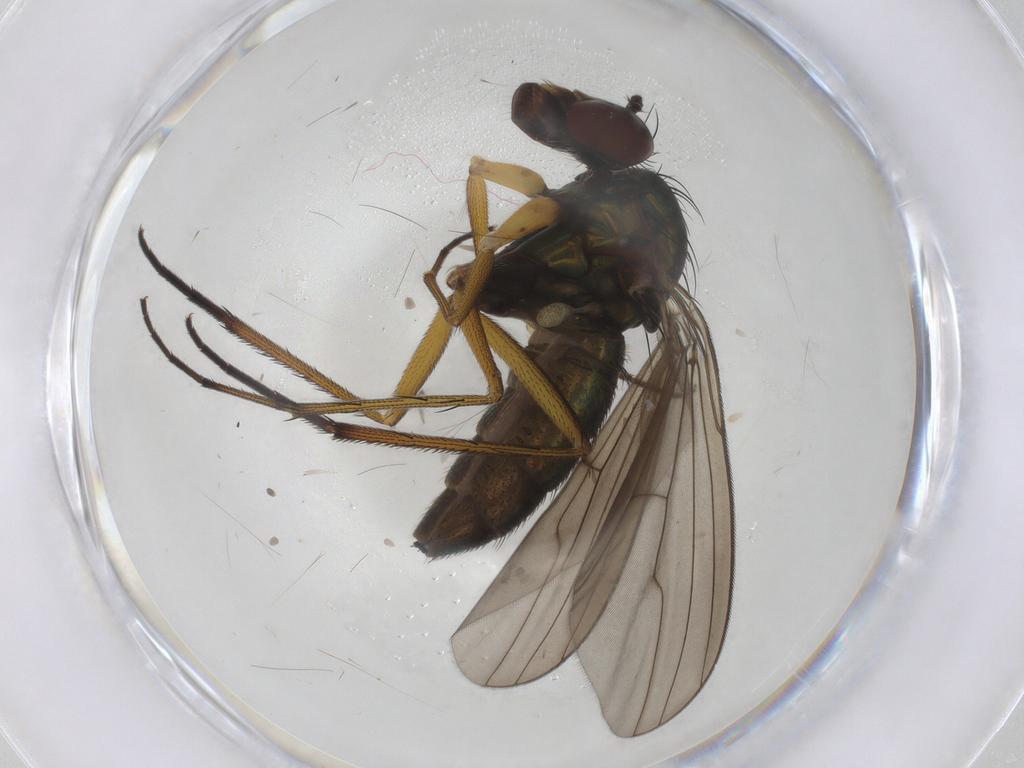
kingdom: Animalia
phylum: Arthropoda
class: Insecta
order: Diptera
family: Dolichopodidae
